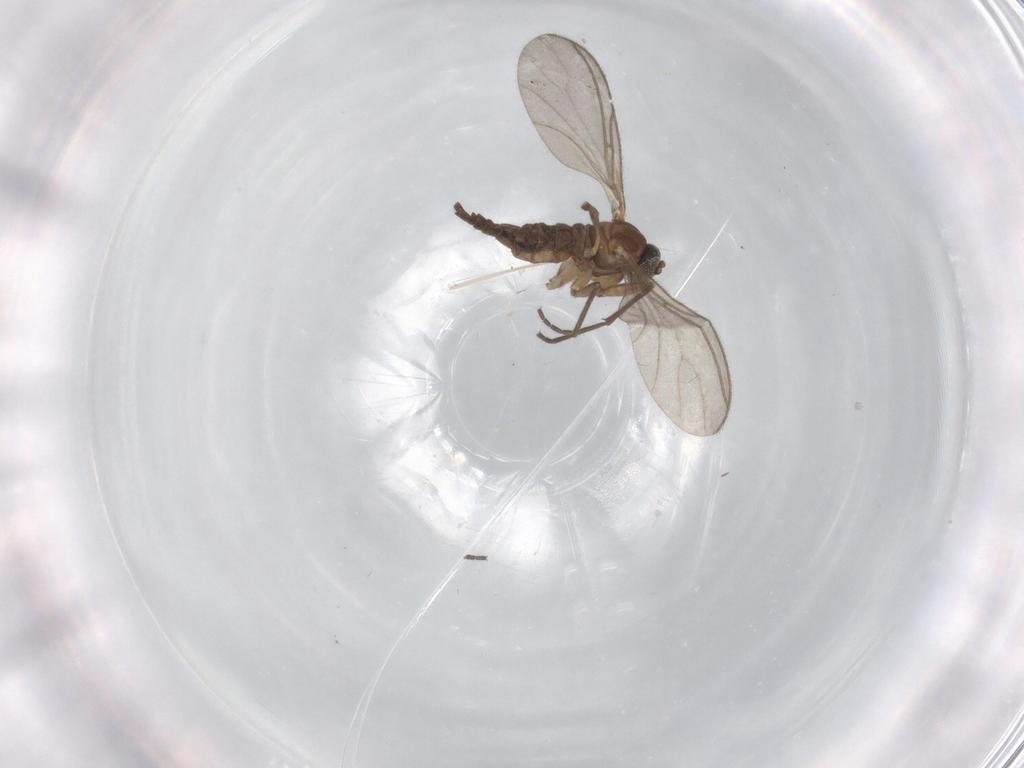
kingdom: Animalia
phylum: Arthropoda
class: Insecta
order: Diptera
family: Sciaridae
